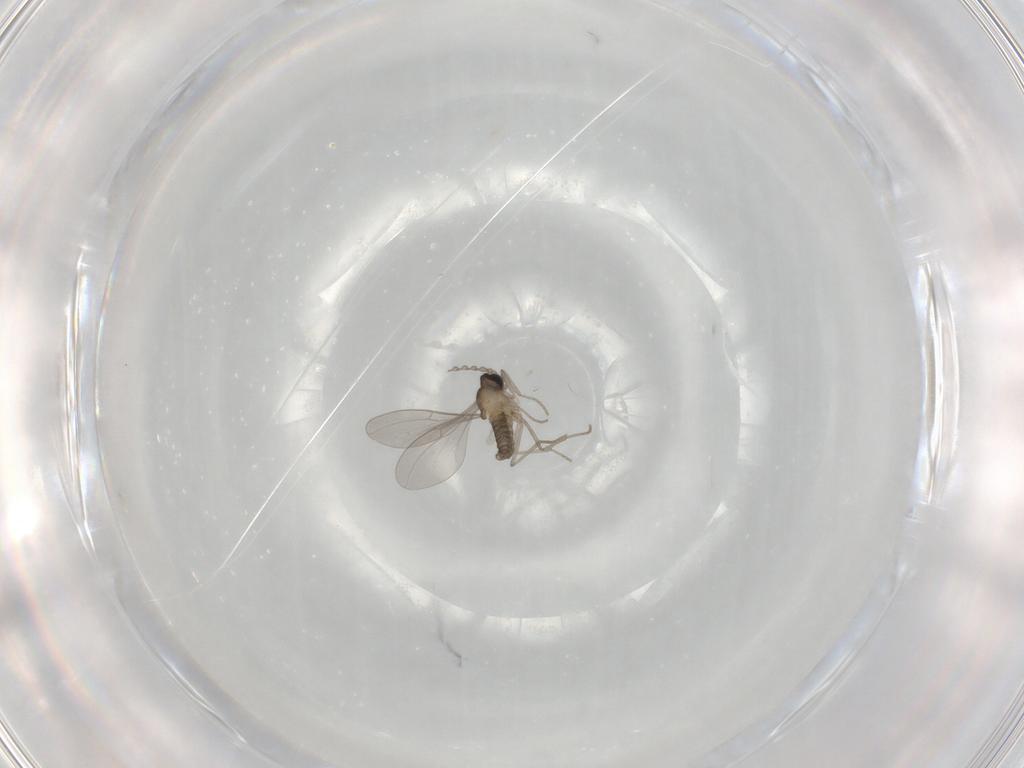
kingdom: Animalia
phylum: Arthropoda
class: Insecta
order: Diptera
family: Cecidomyiidae
